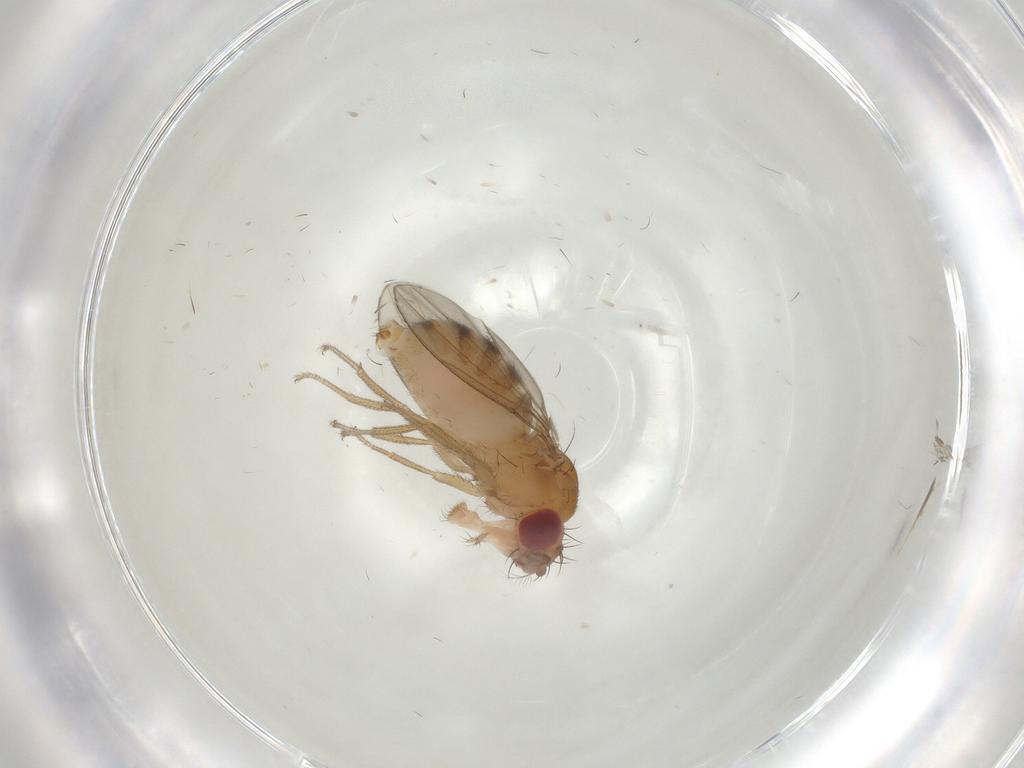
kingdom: Animalia
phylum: Arthropoda
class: Insecta
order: Diptera
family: Drosophilidae
